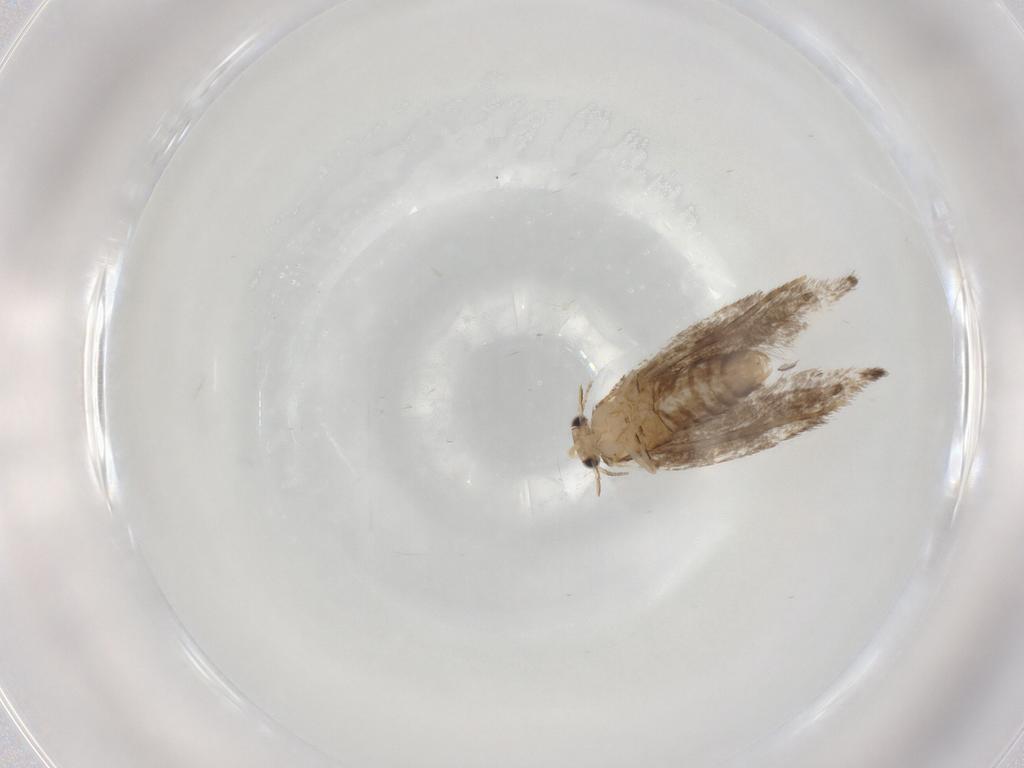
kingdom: Animalia
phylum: Arthropoda
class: Insecta
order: Lepidoptera
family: Incurvariidae
